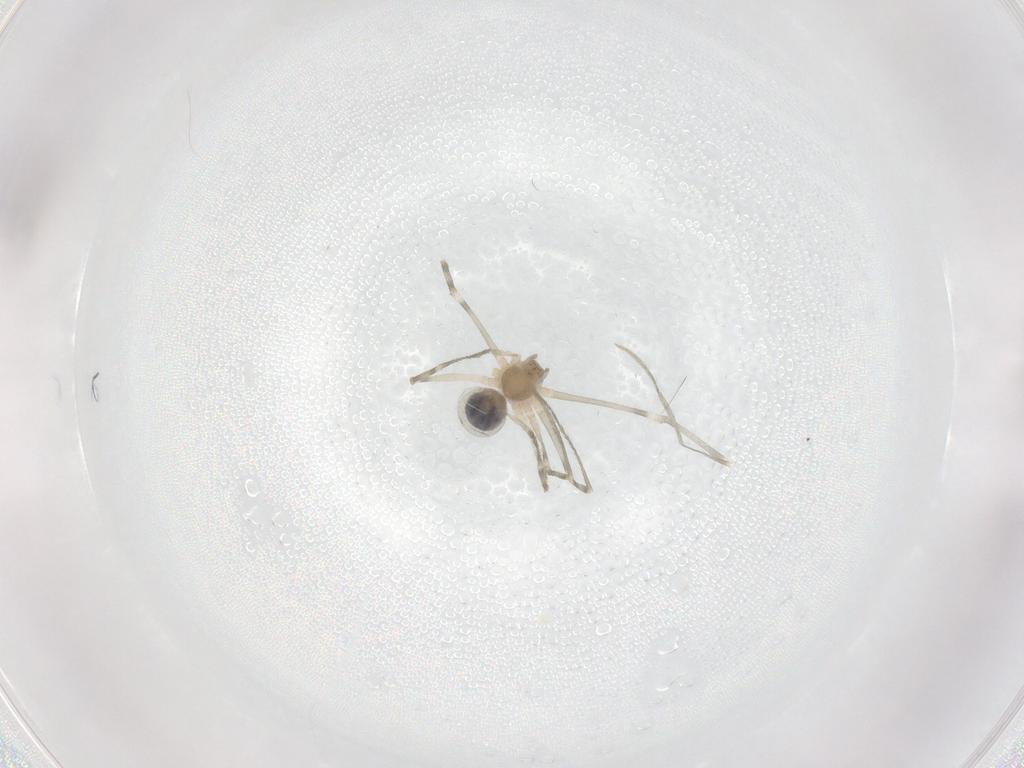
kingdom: Animalia
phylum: Arthropoda
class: Arachnida
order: Araneae
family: Pholcidae
